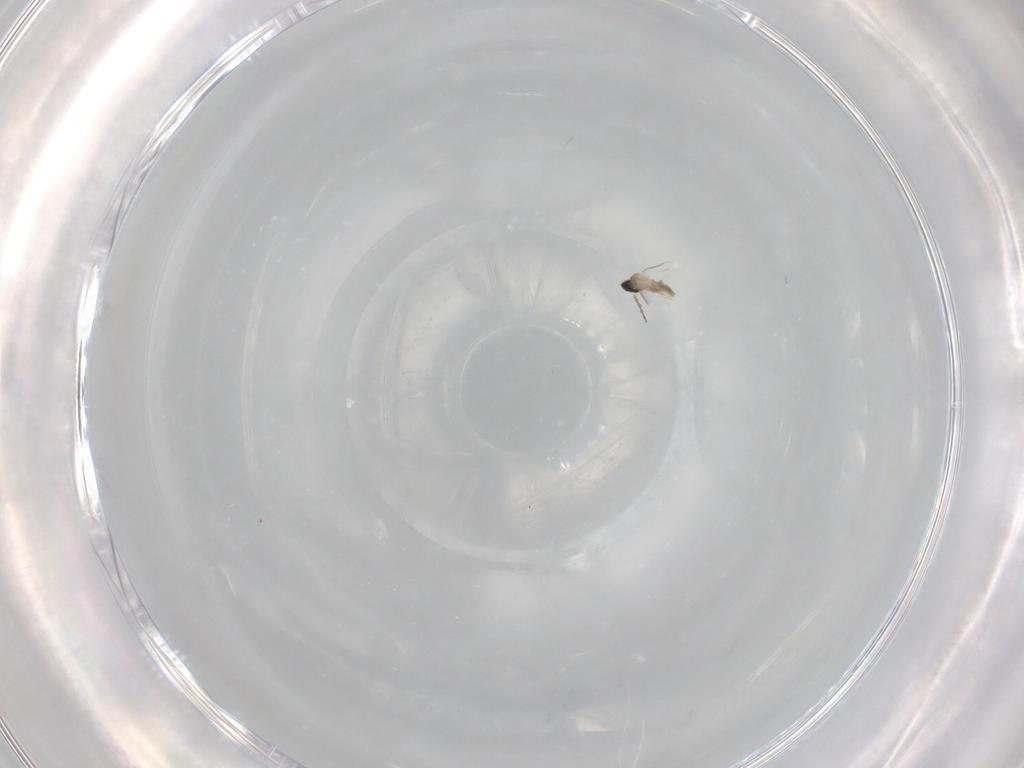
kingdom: Animalia
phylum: Arthropoda
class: Insecta
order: Diptera
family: Cecidomyiidae
